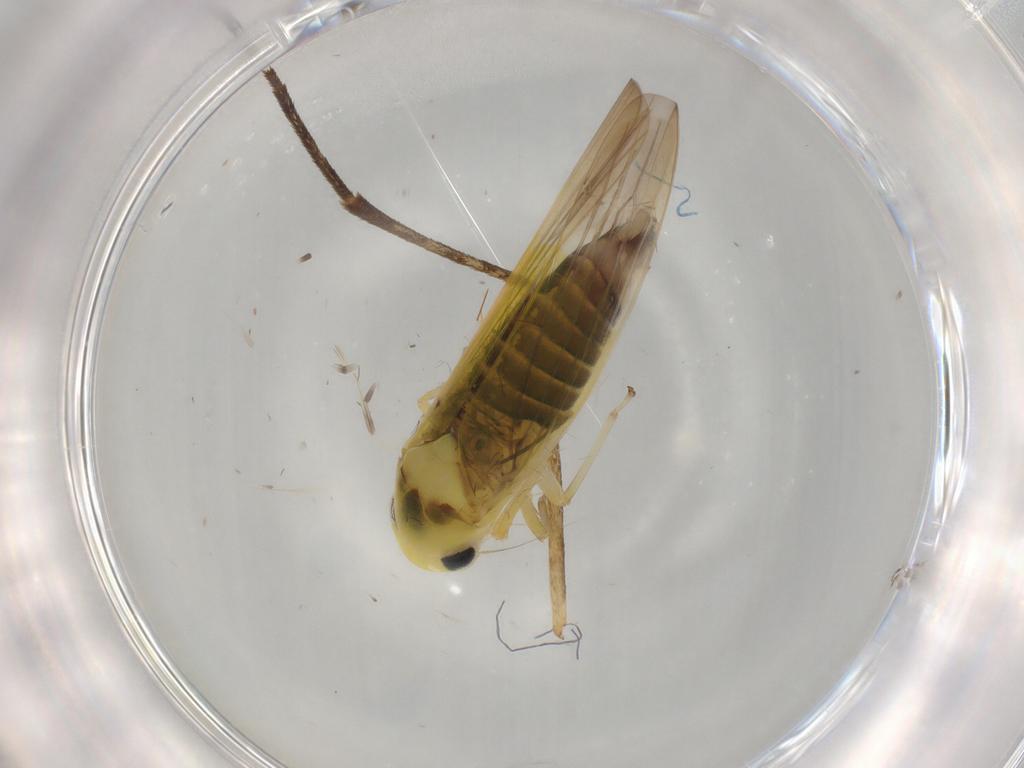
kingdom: Animalia
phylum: Arthropoda
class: Insecta
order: Hemiptera
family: Cicadellidae
